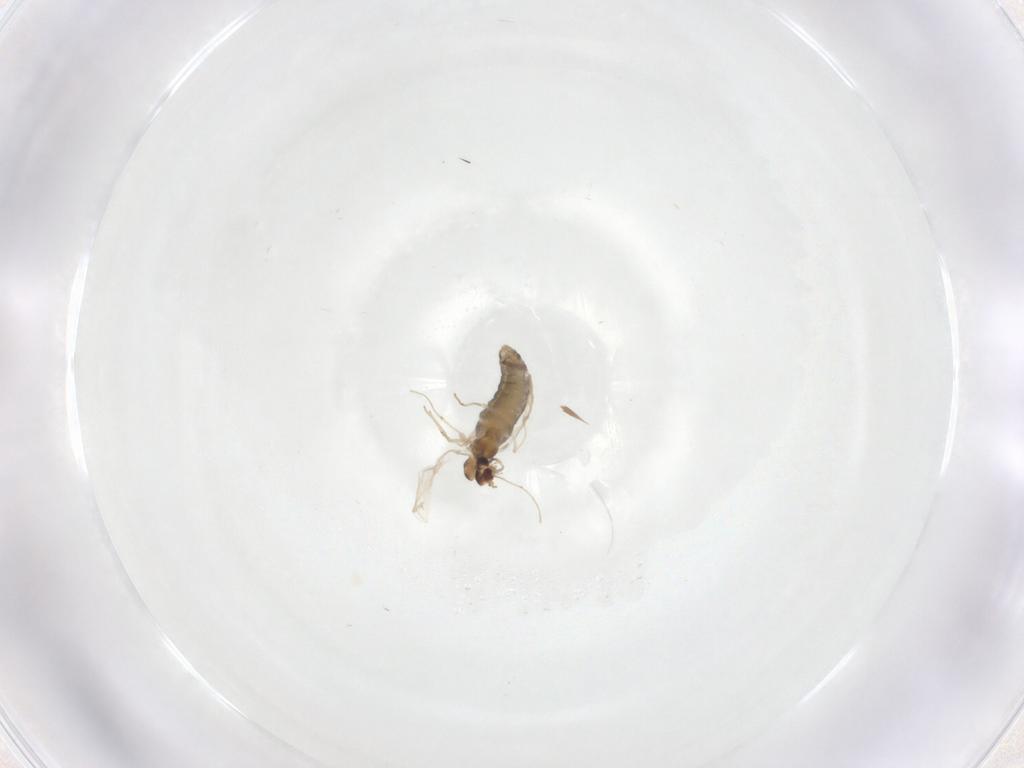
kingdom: Animalia
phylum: Arthropoda
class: Insecta
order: Diptera
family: Chironomidae
